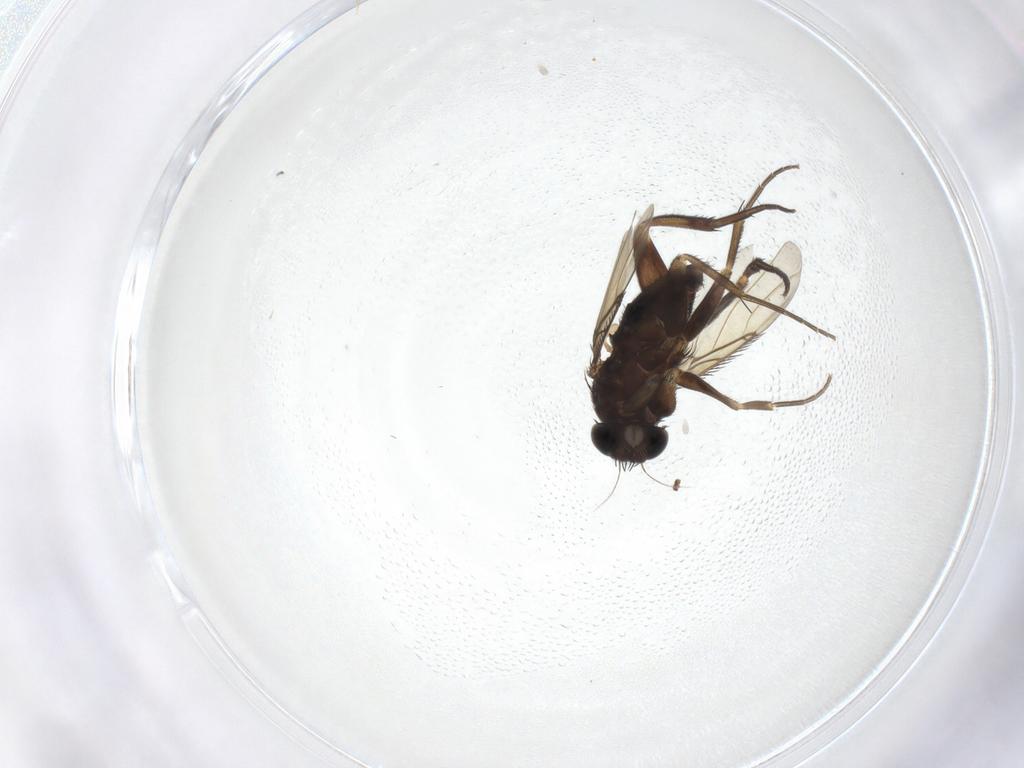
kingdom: Animalia
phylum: Arthropoda
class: Insecta
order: Diptera
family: Phoridae
